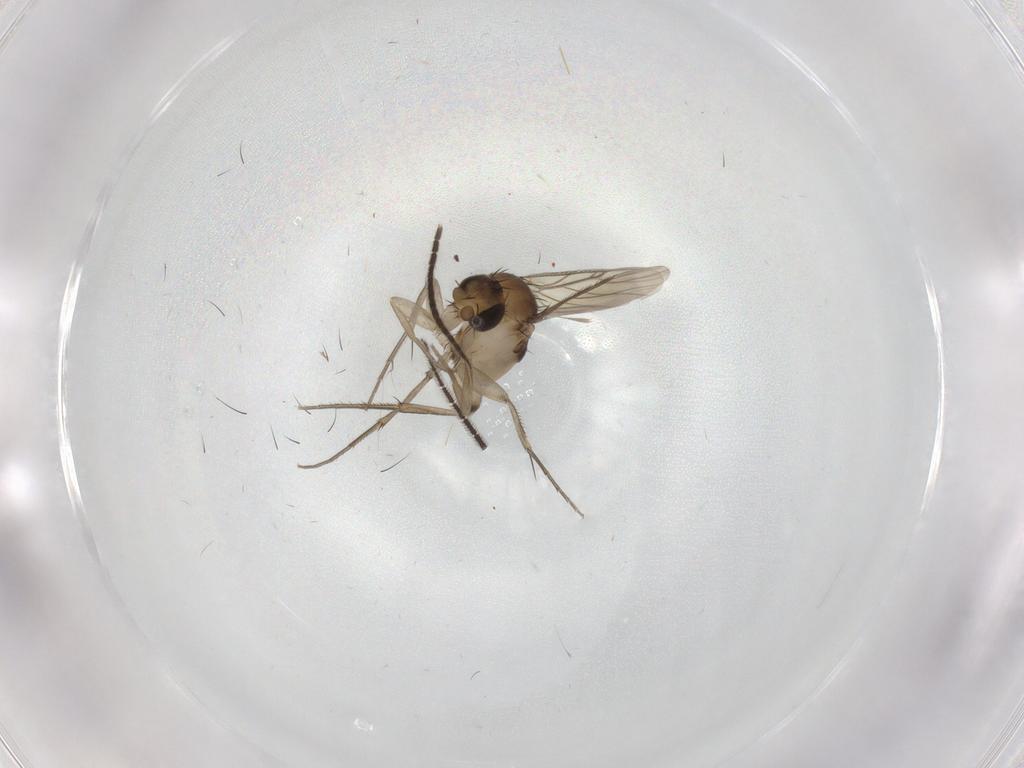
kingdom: Animalia
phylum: Arthropoda
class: Insecta
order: Diptera
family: Sciaridae
